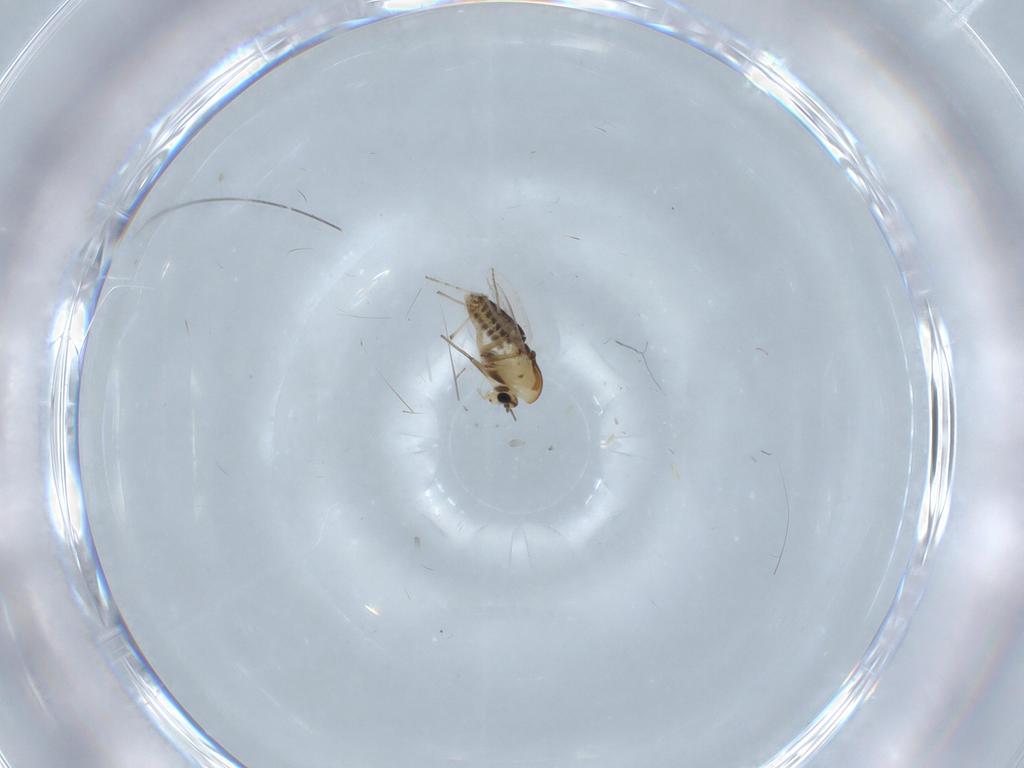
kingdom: Animalia
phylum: Arthropoda
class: Insecta
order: Diptera
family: Chironomidae
